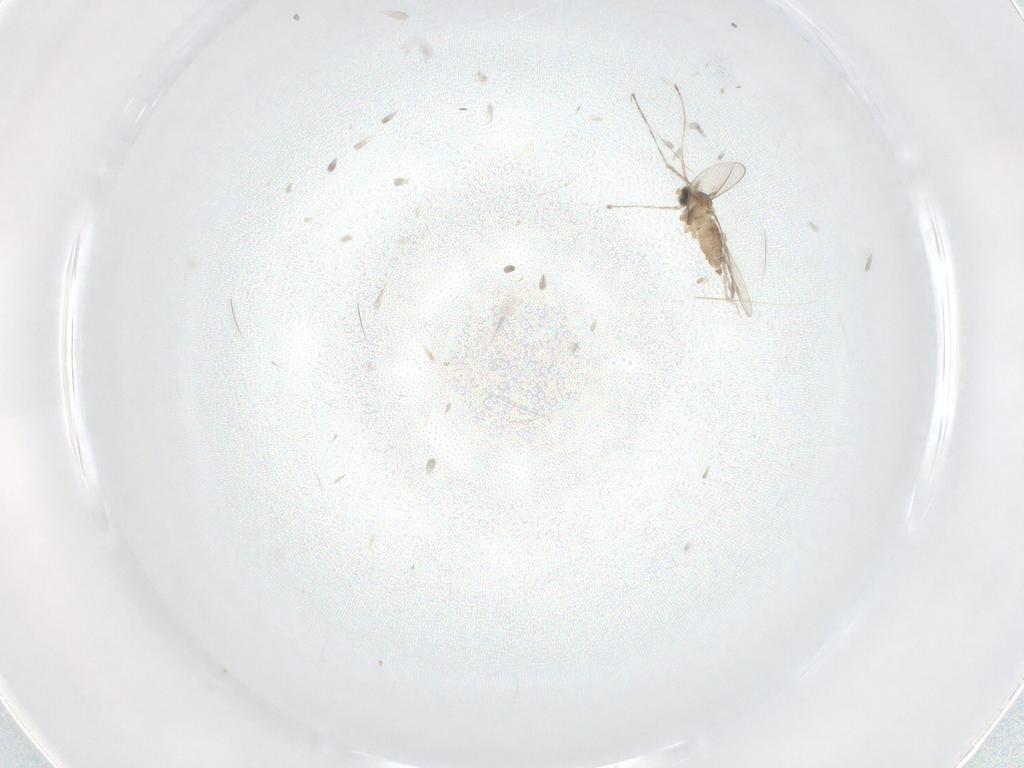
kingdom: Animalia
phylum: Arthropoda
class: Insecta
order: Diptera
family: Cecidomyiidae
